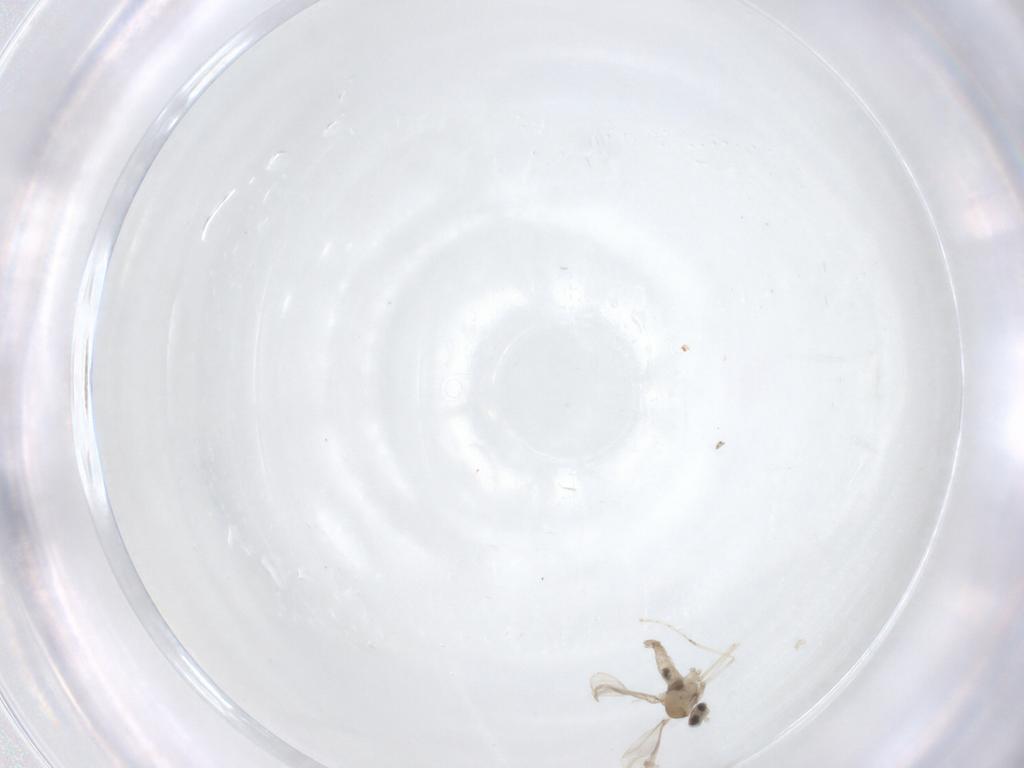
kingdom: Animalia
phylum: Arthropoda
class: Insecta
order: Diptera
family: Cecidomyiidae
